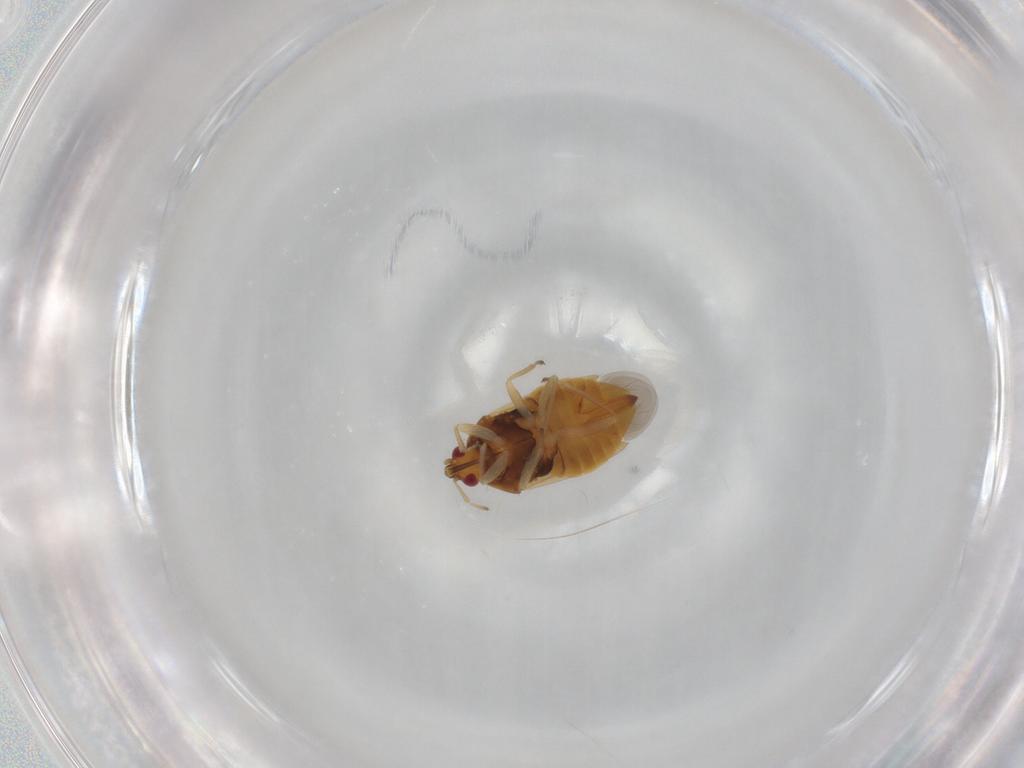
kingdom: Animalia
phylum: Arthropoda
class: Insecta
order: Hemiptera
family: Anthocoridae
